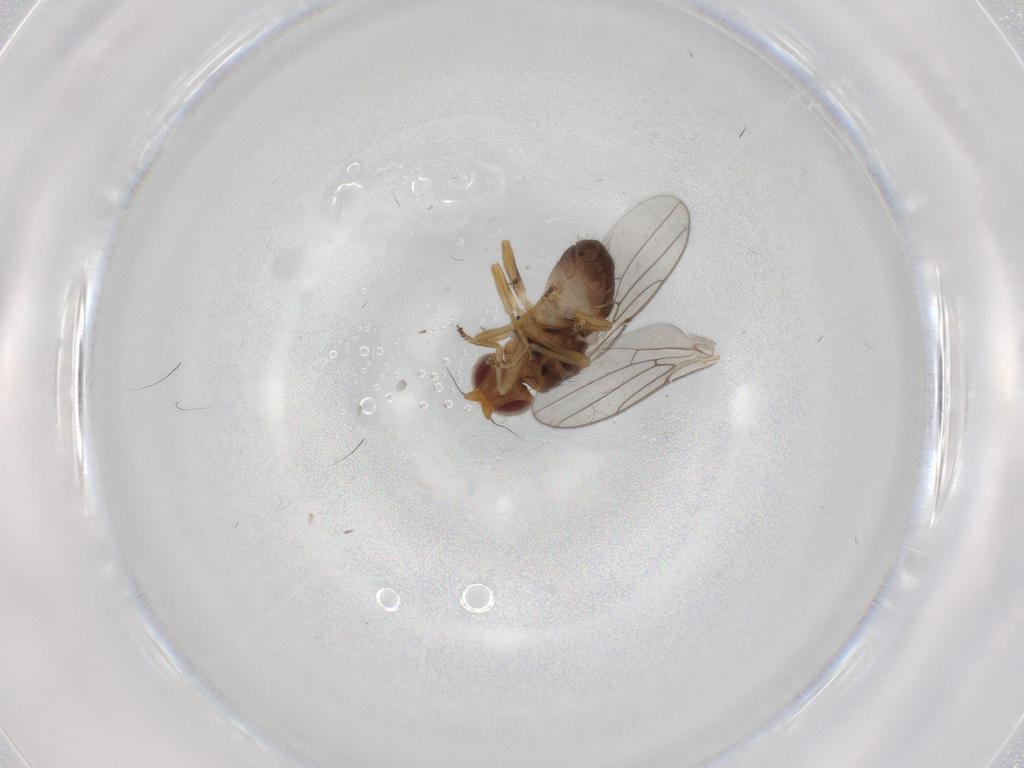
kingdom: Animalia
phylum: Arthropoda
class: Insecta
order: Diptera
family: Chloropidae
